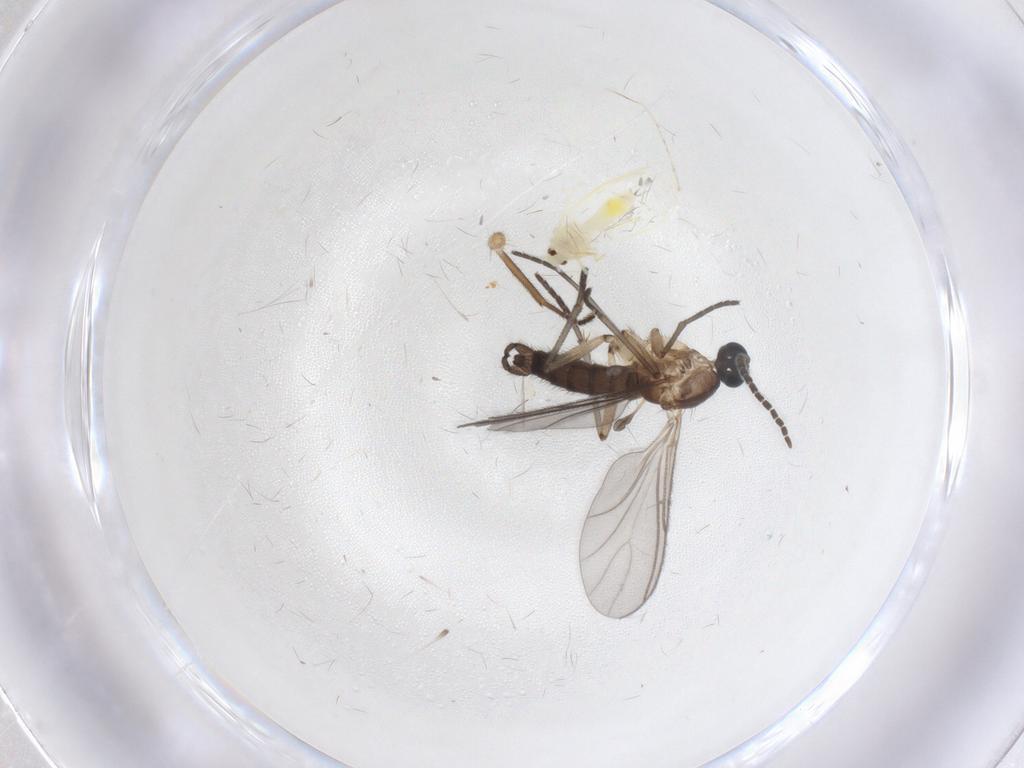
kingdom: Animalia
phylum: Arthropoda
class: Insecta
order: Diptera
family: Sciaridae
